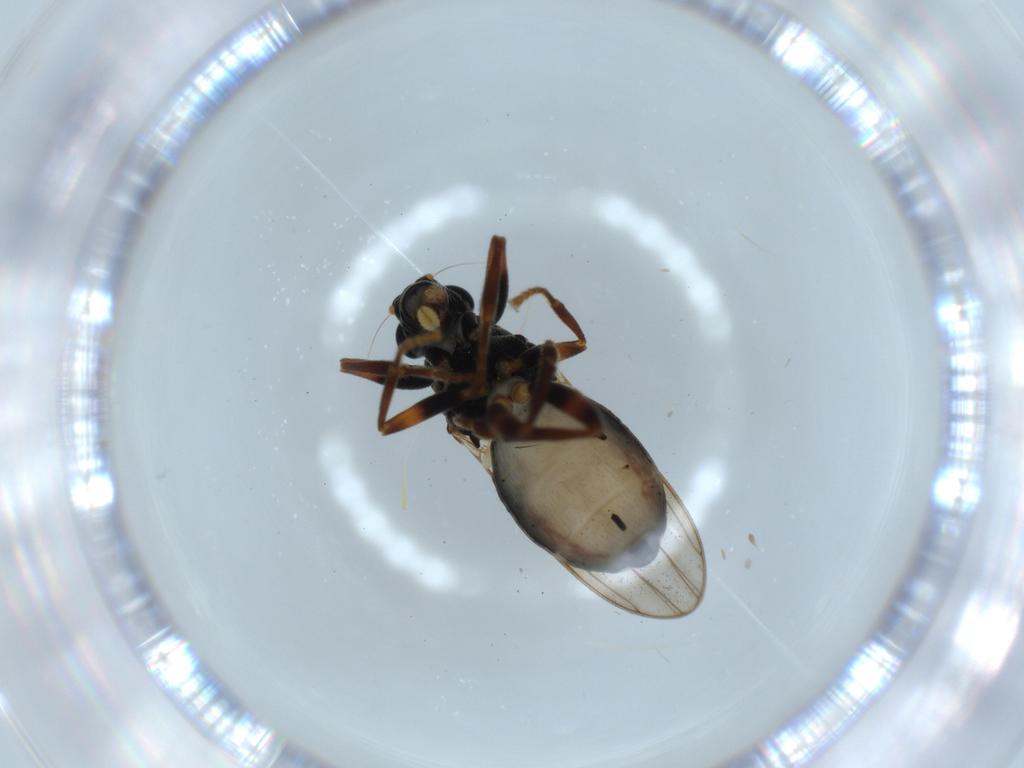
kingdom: Animalia
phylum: Arthropoda
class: Insecta
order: Diptera
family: Sphaeroceridae
